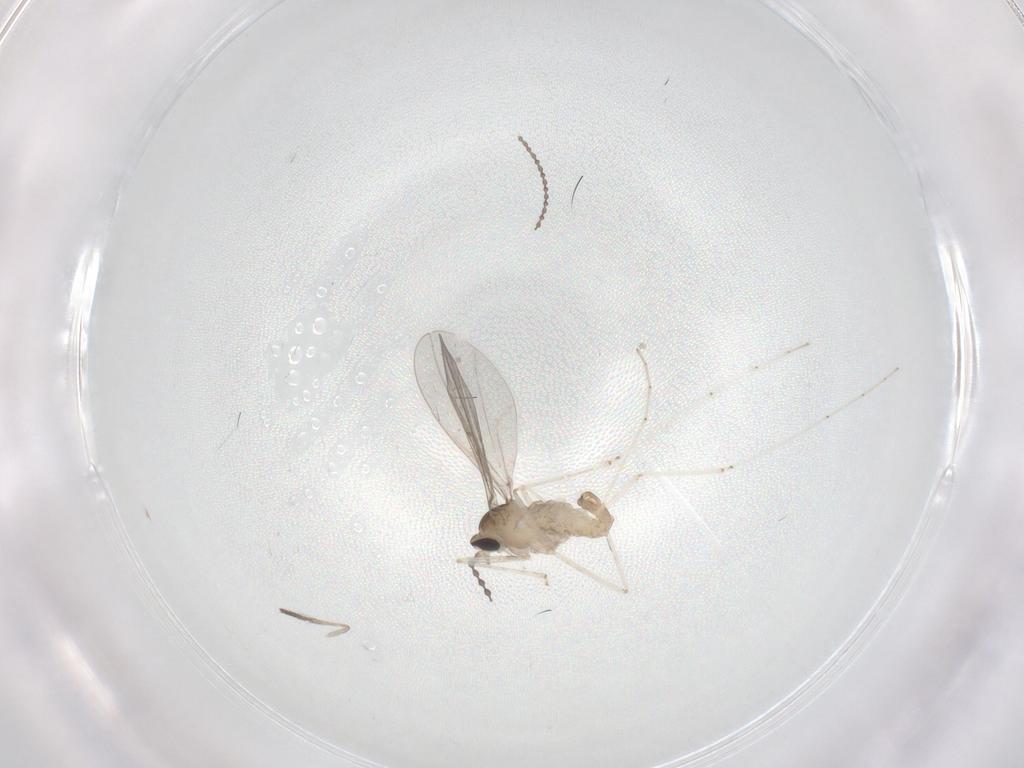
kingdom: Animalia
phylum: Arthropoda
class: Insecta
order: Diptera
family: Cecidomyiidae
